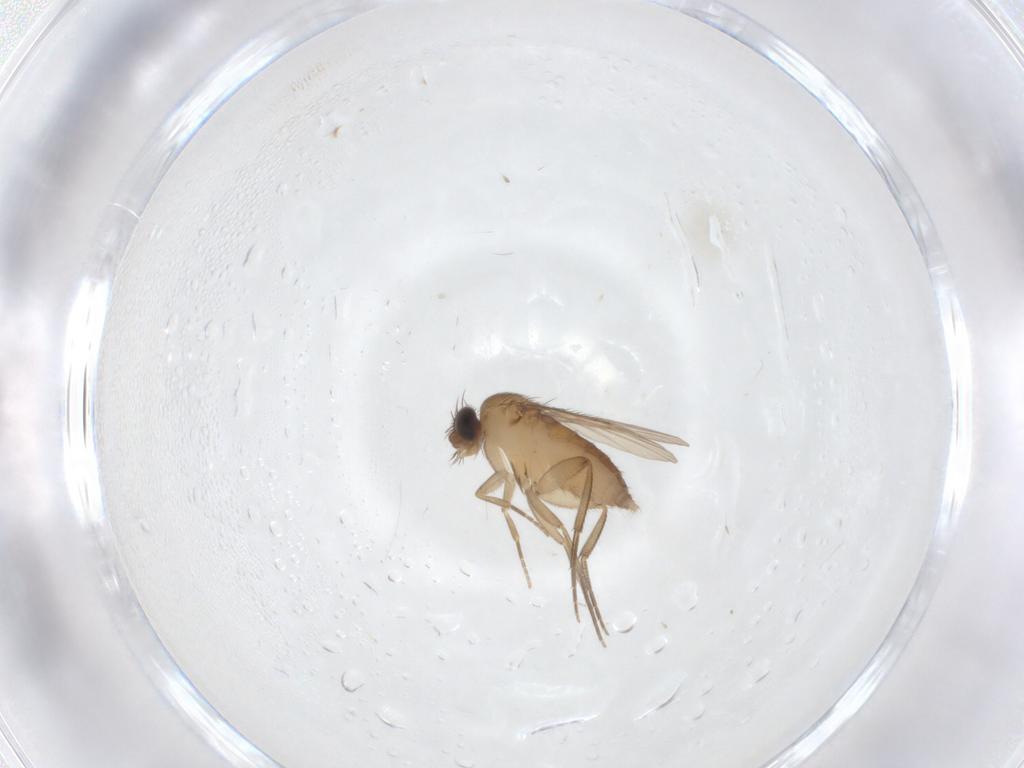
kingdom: Animalia
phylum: Arthropoda
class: Insecta
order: Diptera
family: Phoridae
